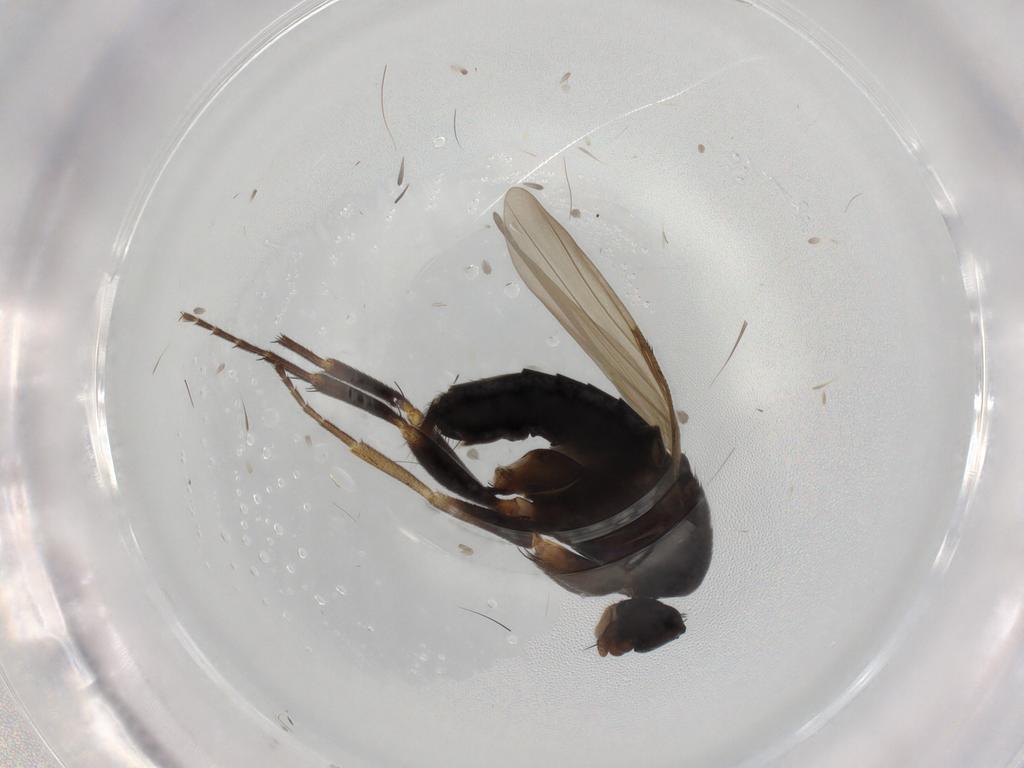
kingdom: Animalia
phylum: Arthropoda
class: Insecta
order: Diptera
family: Phoridae
